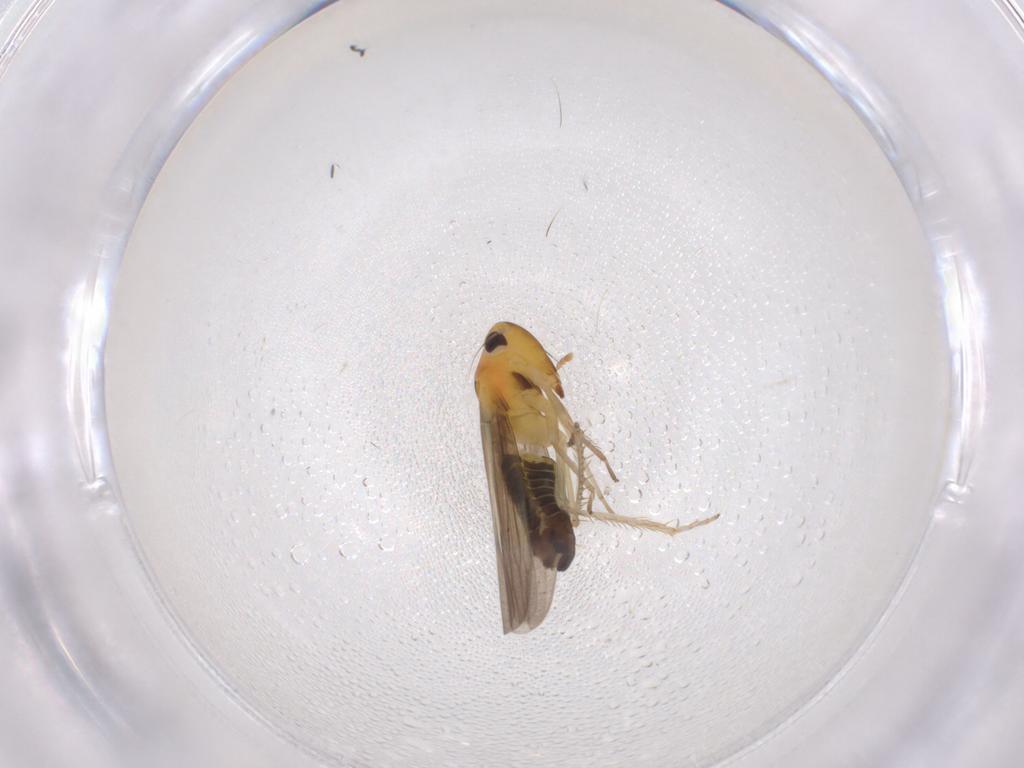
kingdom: Animalia
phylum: Arthropoda
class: Insecta
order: Hemiptera
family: Cicadellidae
